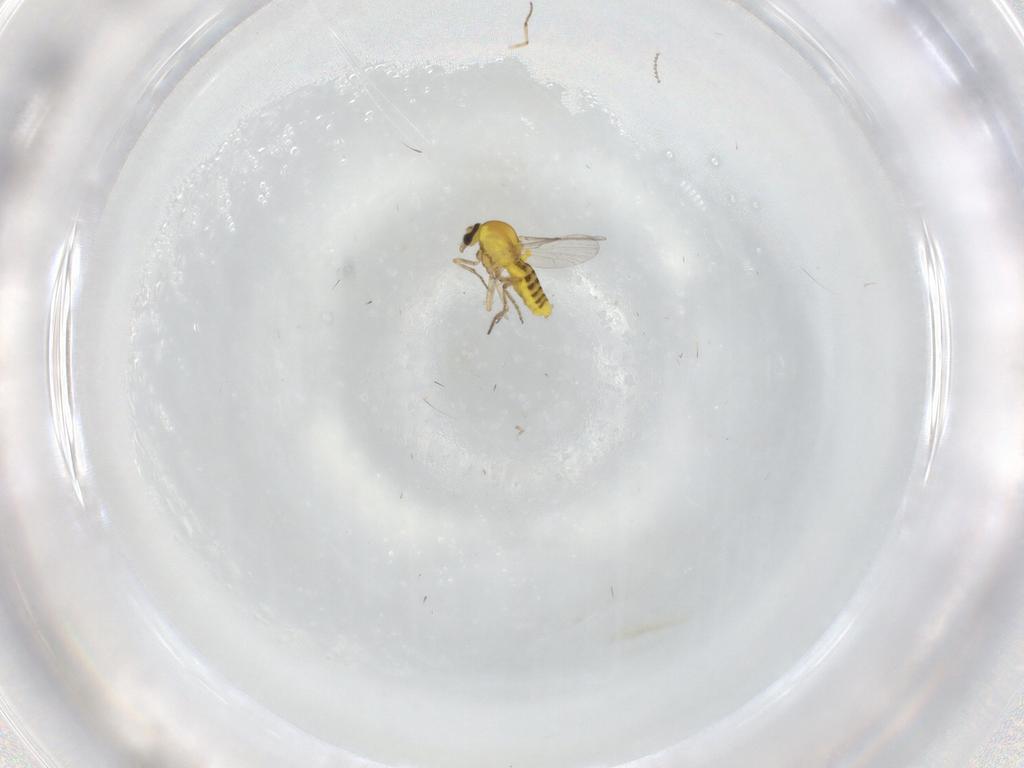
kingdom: Animalia
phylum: Arthropoda
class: Insecta
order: Diptera
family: Ceratopogonidae
